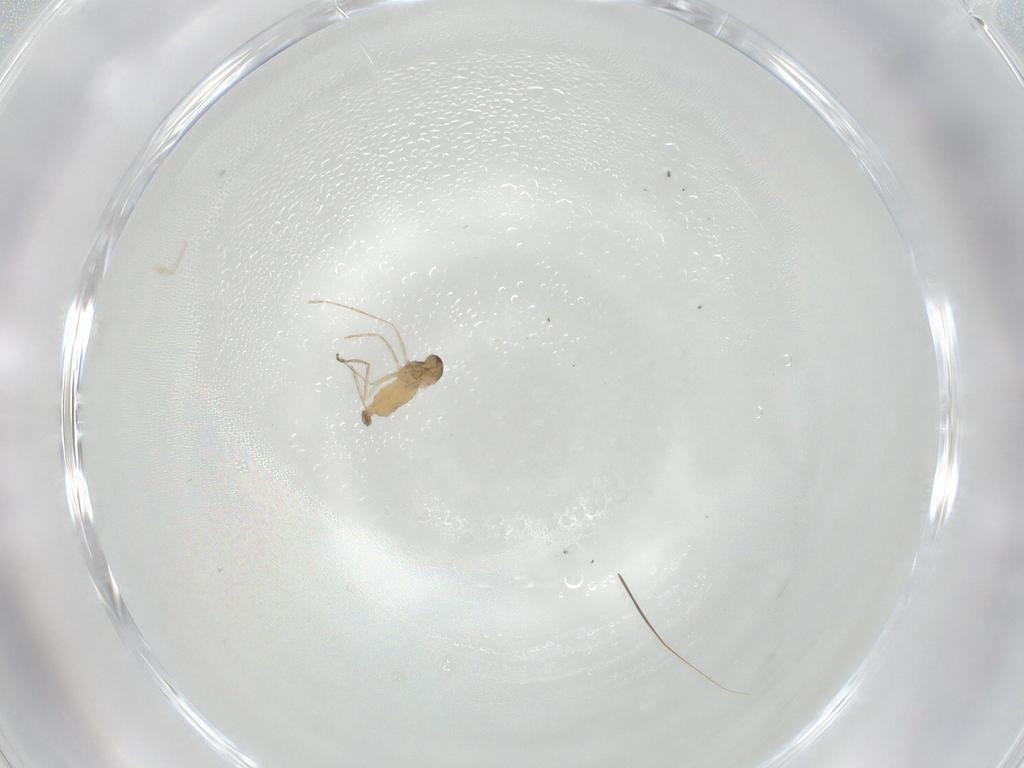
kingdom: Animalia
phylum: Arthropoda
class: Insecta
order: Diptera
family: Cecidomyiidae
